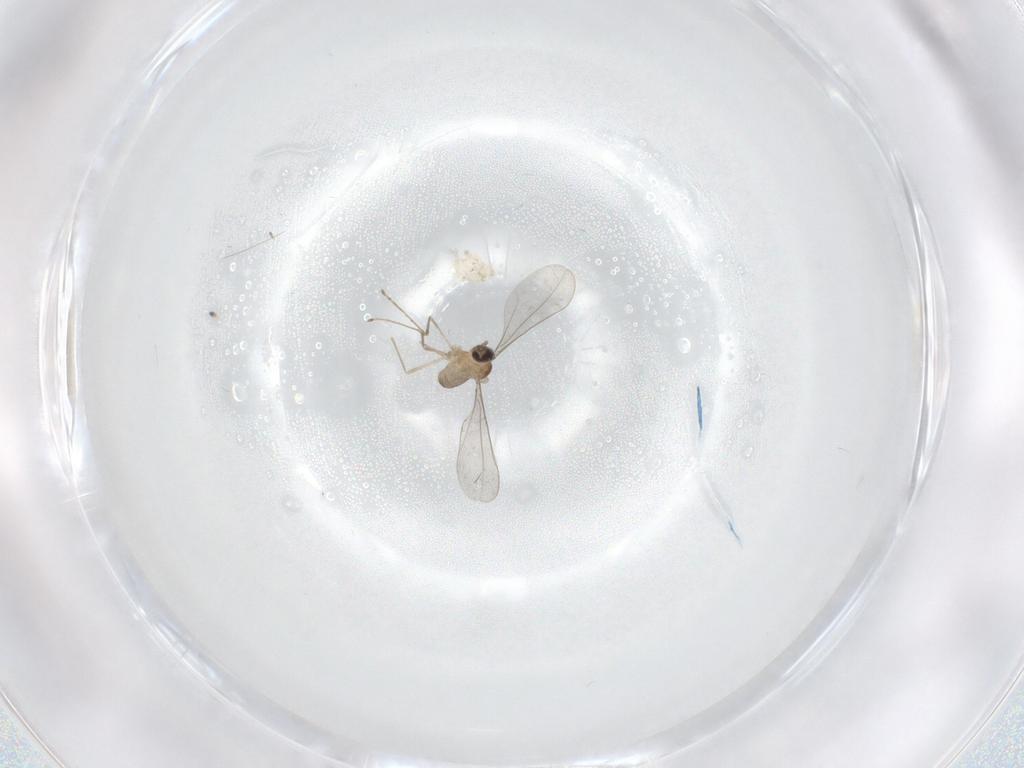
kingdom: Animalia
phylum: Arthropoda
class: Insecta
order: Diptera
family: Cecidomyiidae
